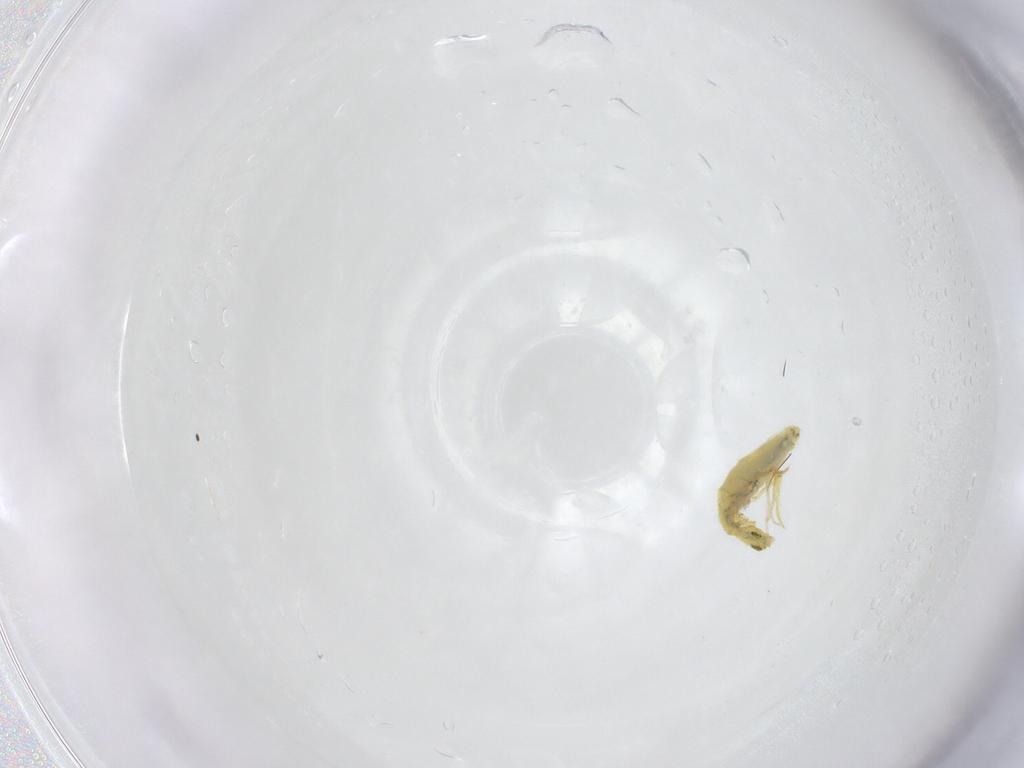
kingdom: Animalia
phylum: Arthropoda
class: Collembola
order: Entomobryomorpha
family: Entomobryidae
